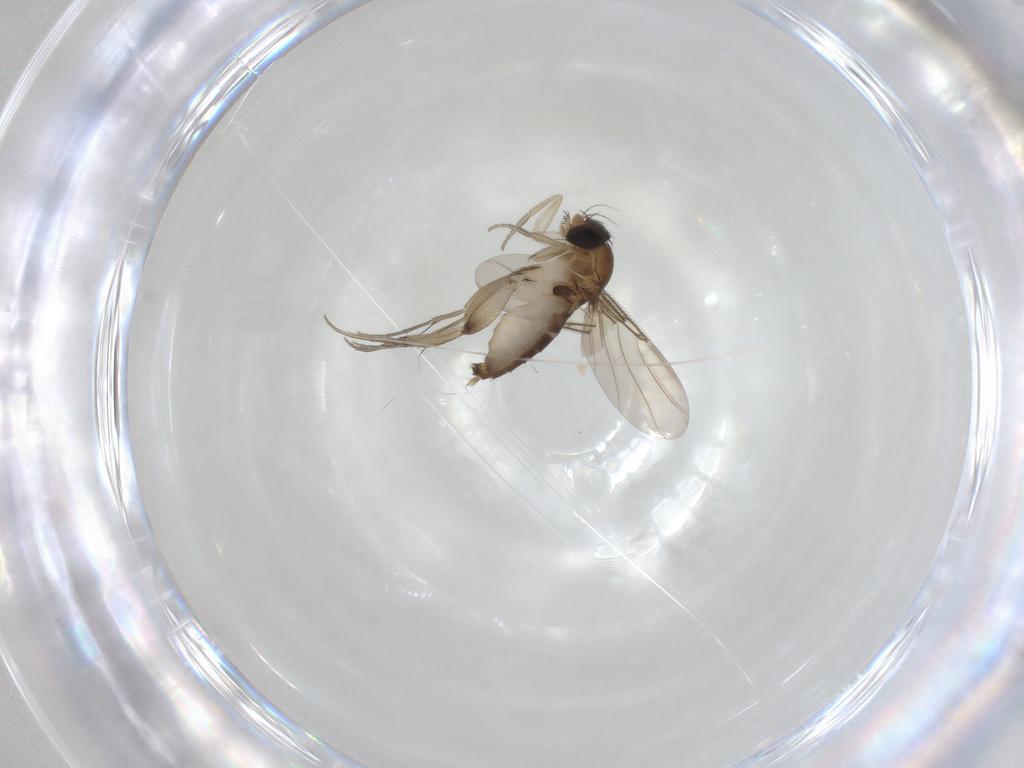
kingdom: Animalia
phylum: Arthropoda
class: Insecta
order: Diptera
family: Phoridae
